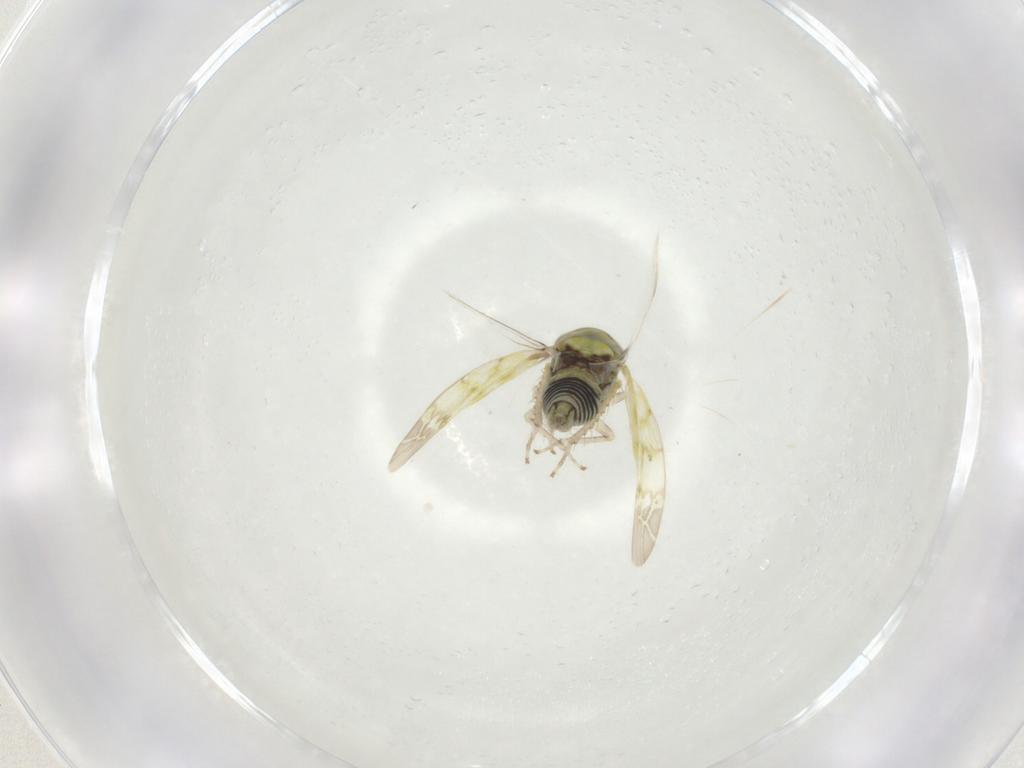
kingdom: Animalia
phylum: Arthropoda
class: Insecta
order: Hemiptera
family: Cicadellidae
